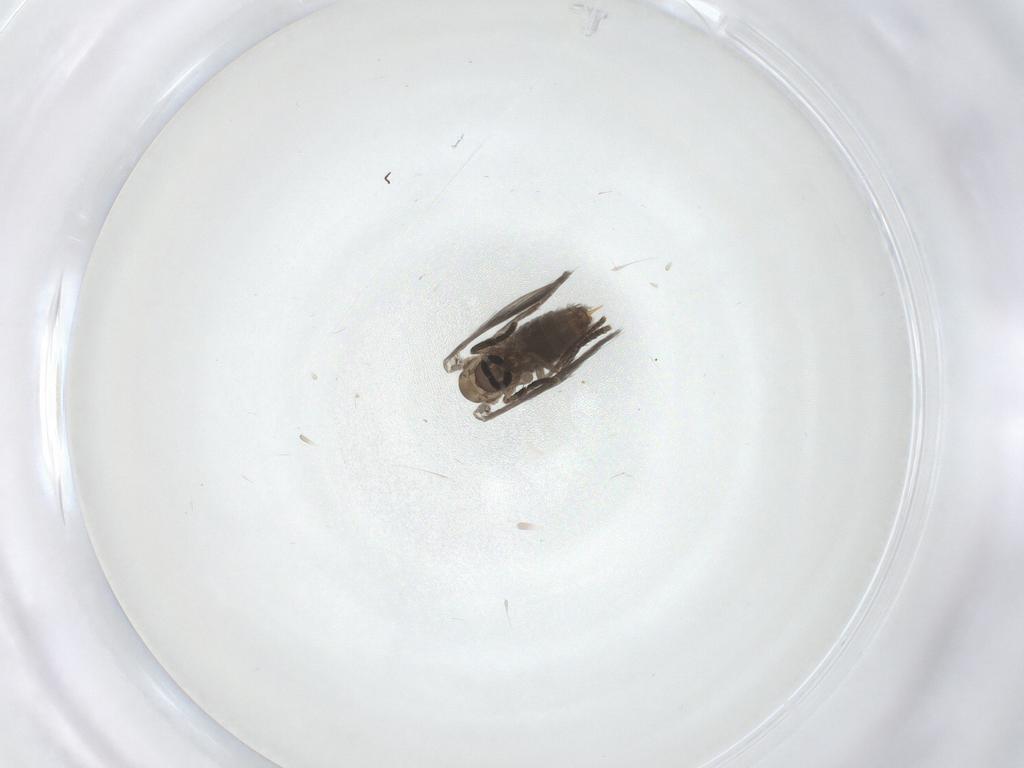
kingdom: Animalia
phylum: Arthropoda
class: Insecta
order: Diptera
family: Psychodidae
